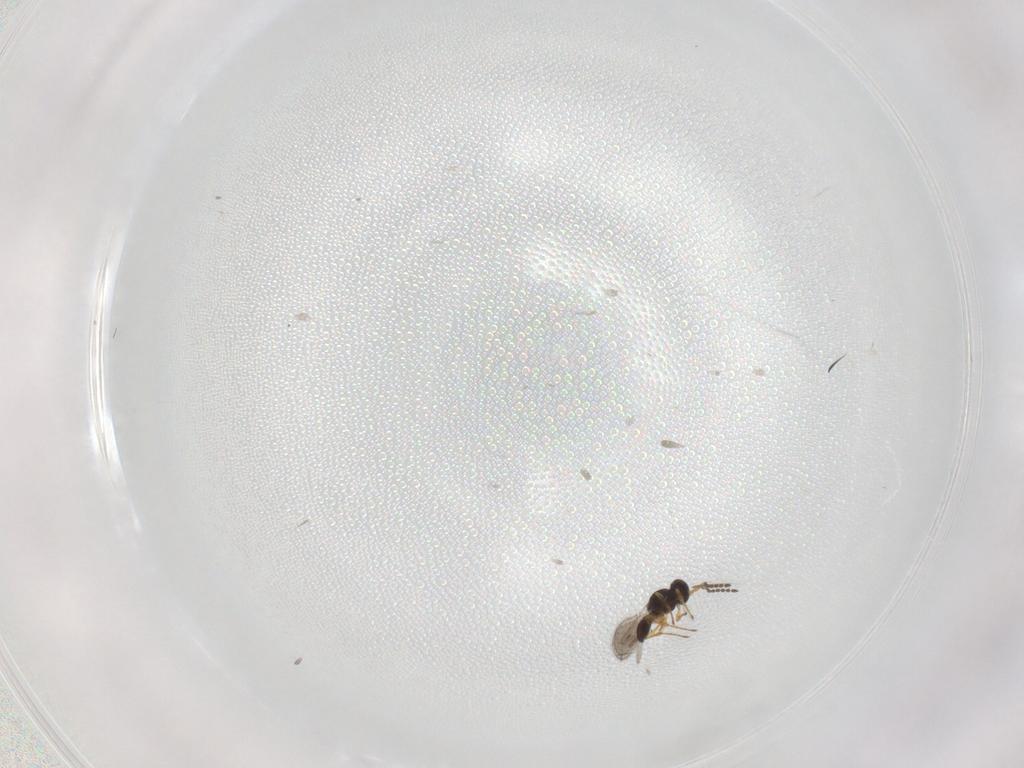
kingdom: Animalia
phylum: Arthropoda
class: Insecta
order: Hymenoptera
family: Platygastridae
